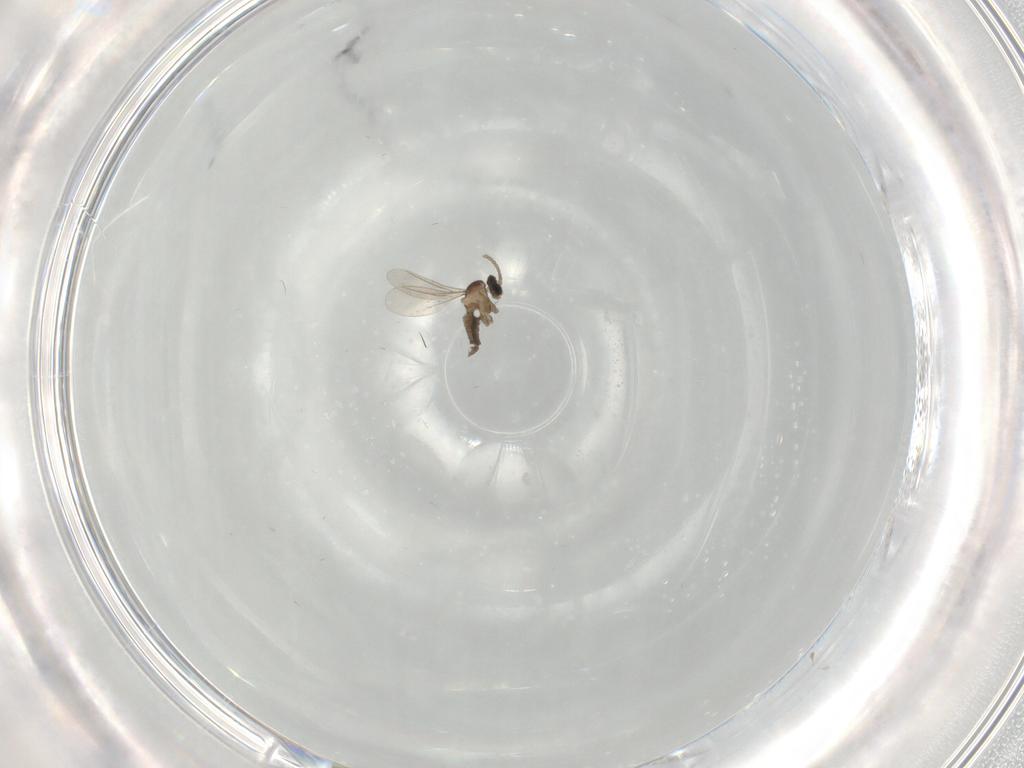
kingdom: Animalia
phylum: Arthropoda
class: Insecta
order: Diptera
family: Cecidomyiidae
